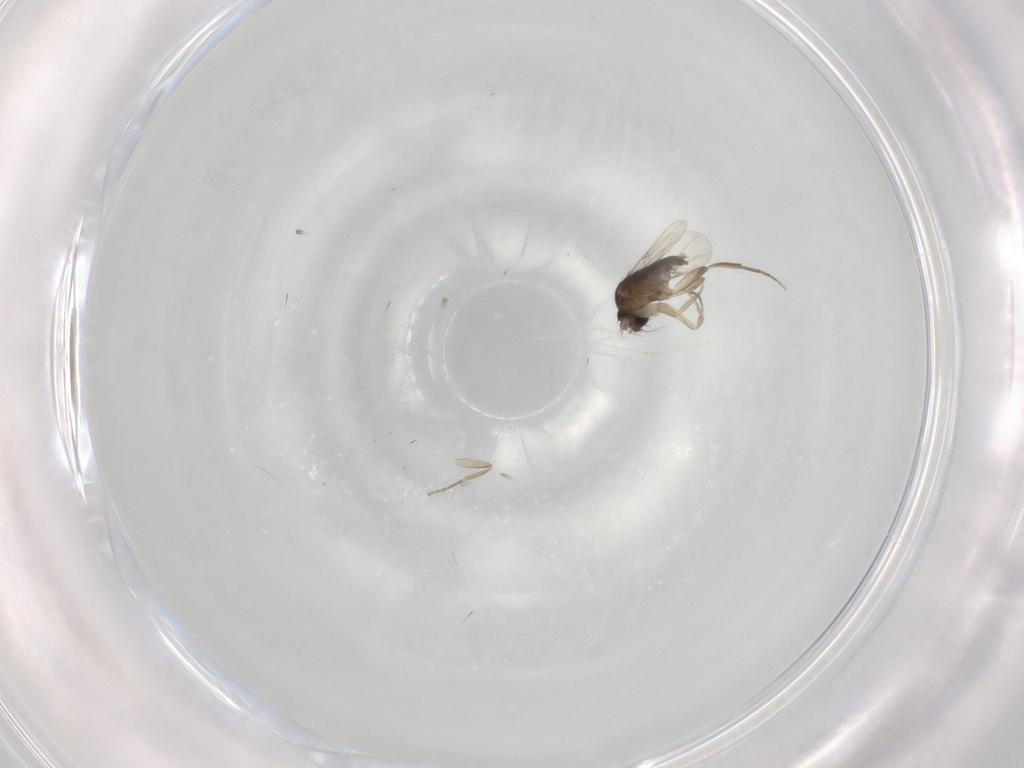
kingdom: Animalia
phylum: Arthropoda
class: Insecta
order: Diptera
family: Phoridae
